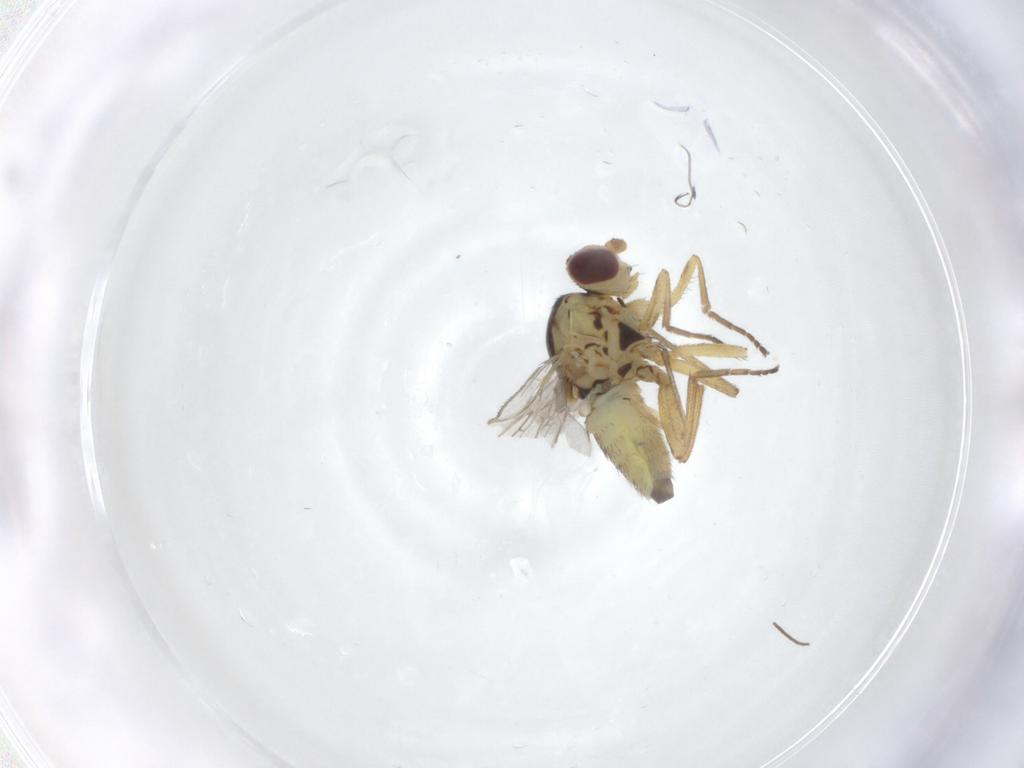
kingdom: Animalia
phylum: Arthropoda
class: Insecta
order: Diptera
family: Sciaridae
